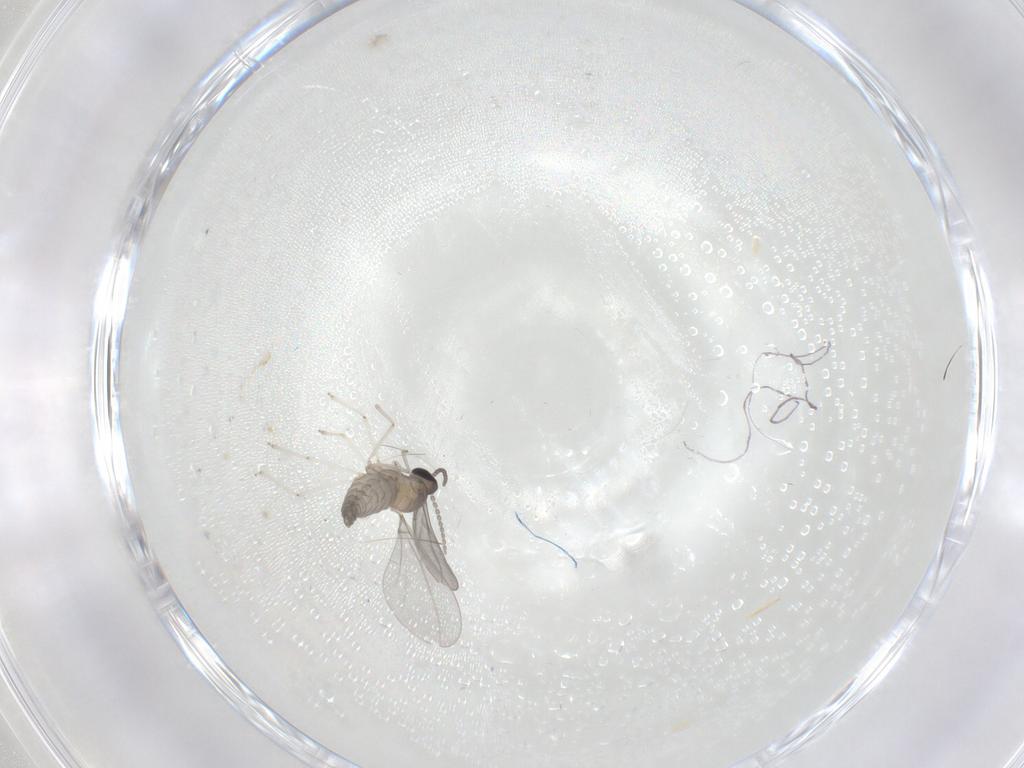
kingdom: Animalia
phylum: Arthropoda
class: Insecta
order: Diptera
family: Cecidomyiidae
